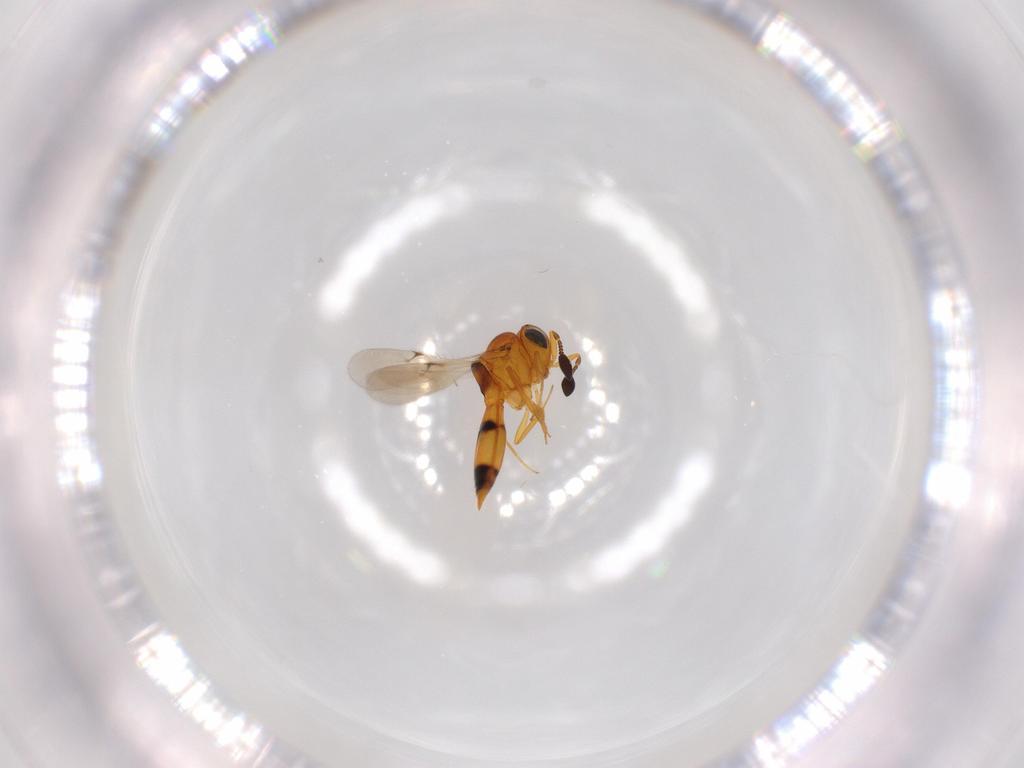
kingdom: Animalia
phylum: Arthropoda
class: Insecta
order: Hymenoptera
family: Scelionidae
